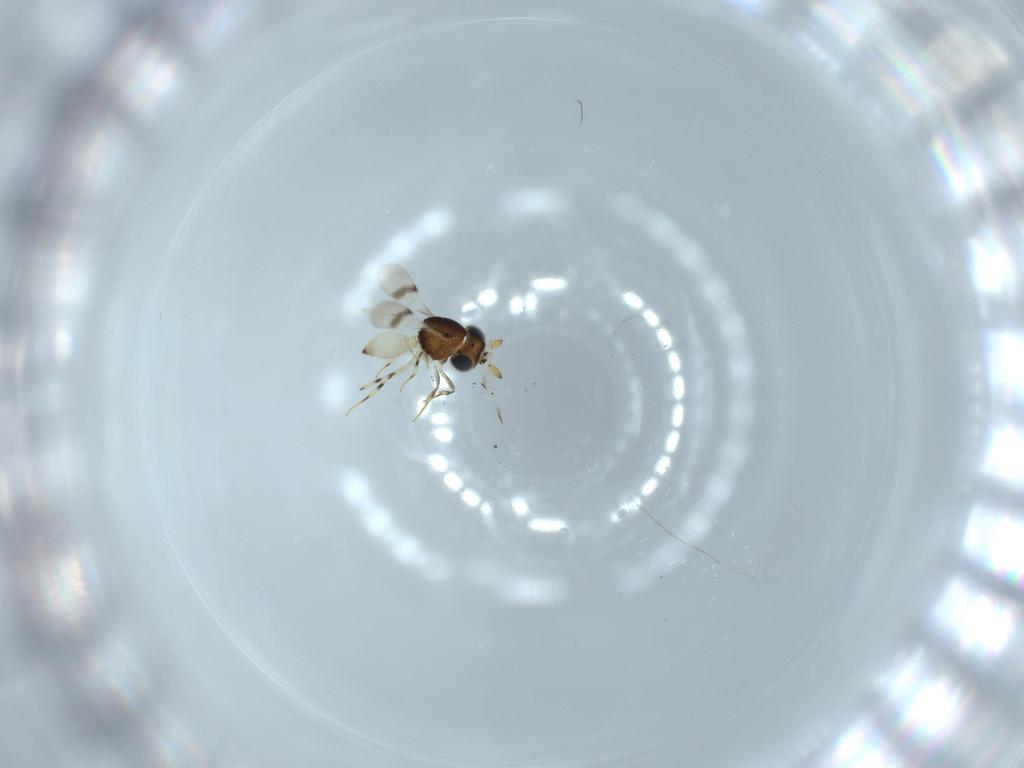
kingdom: Animalia
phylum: Arthropoda
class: Insecta
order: Hymenoptera
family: Scelionidae
